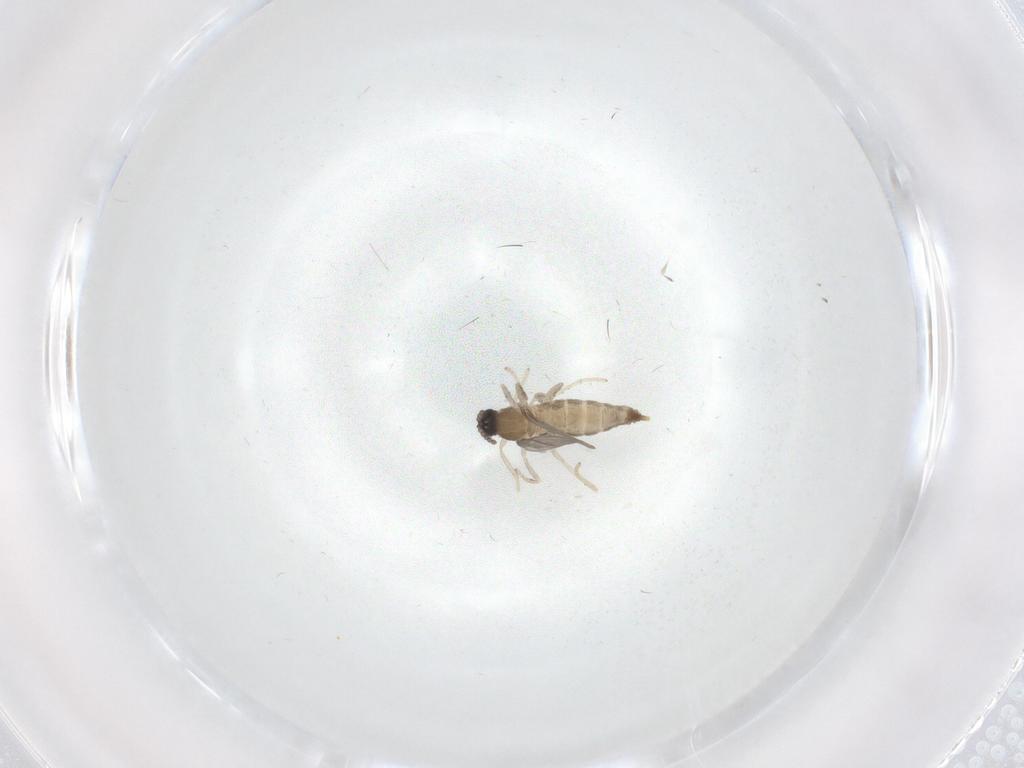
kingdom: Animalia
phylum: Arthropoda
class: Insecta
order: Diptera
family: Cecidomyiidae
